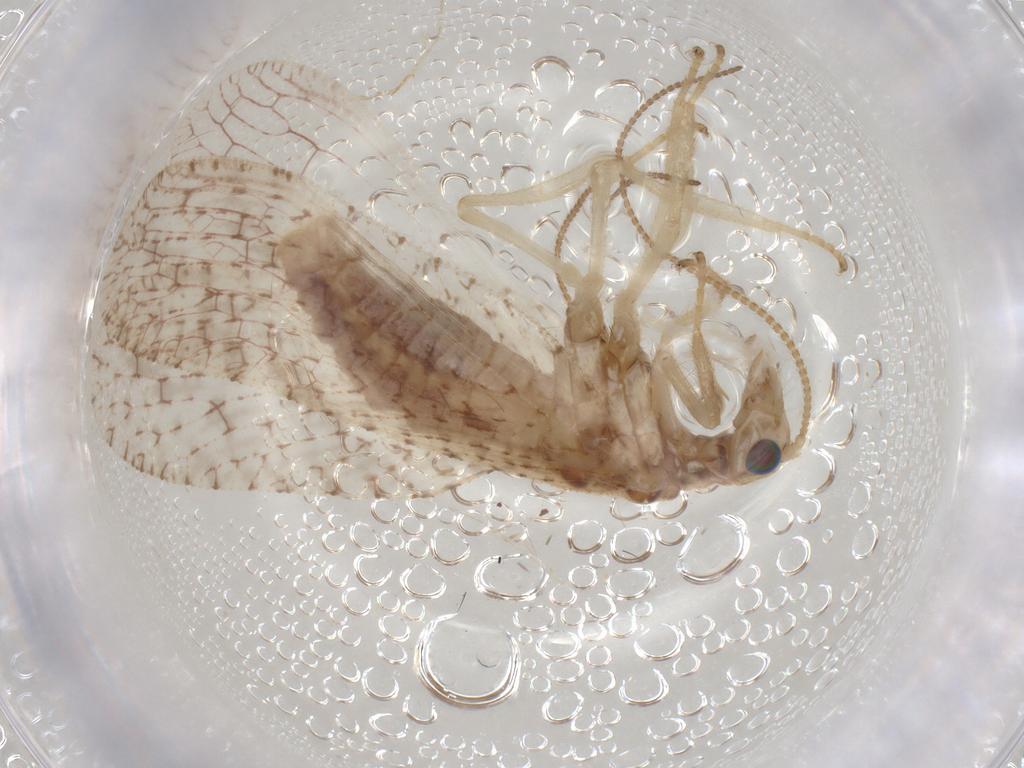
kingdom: Animalia
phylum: Arthropoda
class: Insecta
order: Neuroptera
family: Hemerobiidae
